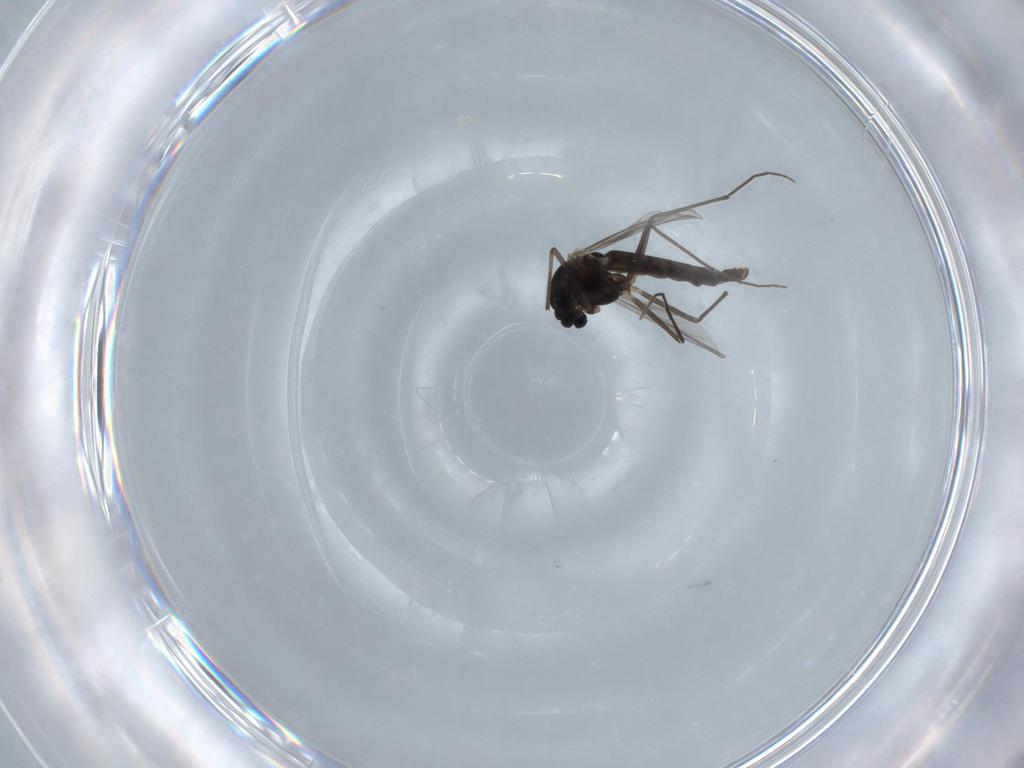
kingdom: Animalia
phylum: Arthropoda
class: Insecta
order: Diptera
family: Chironomidae
